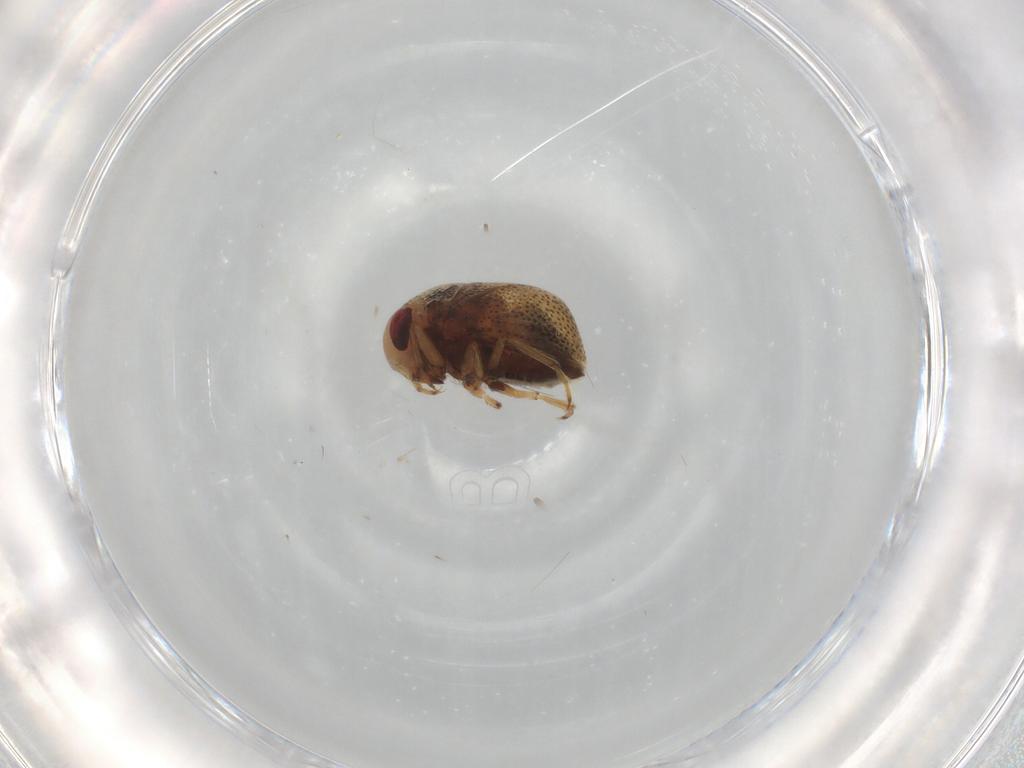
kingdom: Animalia
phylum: Arthropoda
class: Insecta
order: Hemiptera
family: Pleidae
